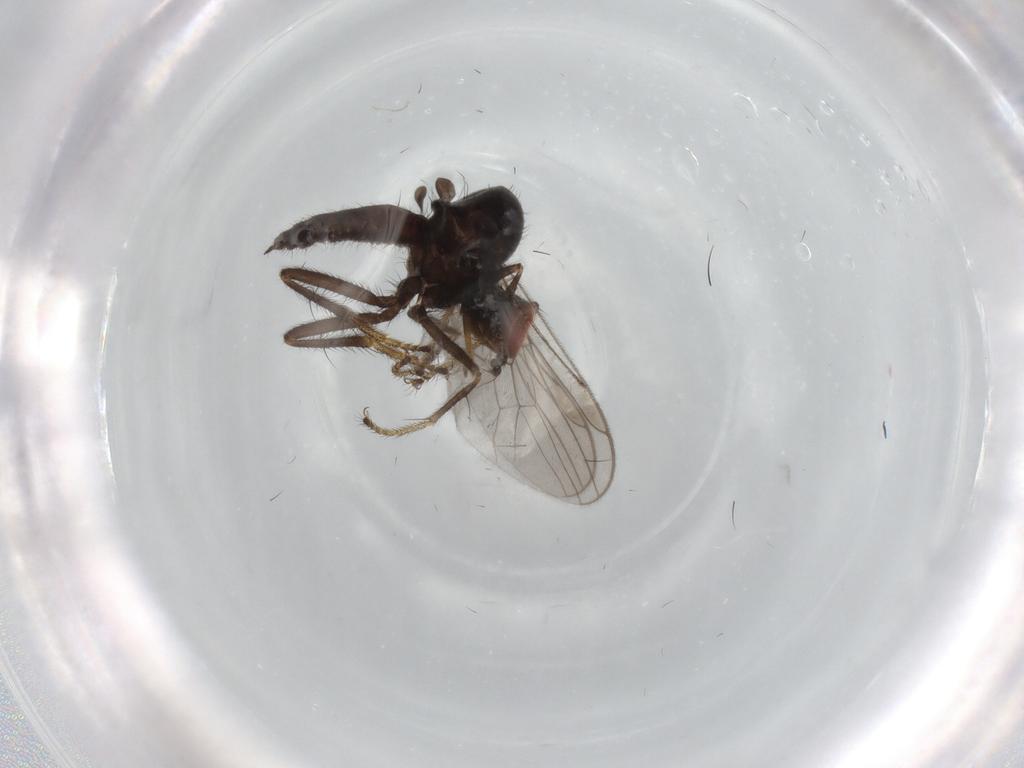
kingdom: Animalia
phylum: Arthropoda
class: Insecta
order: Diptera
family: Hybotidae
